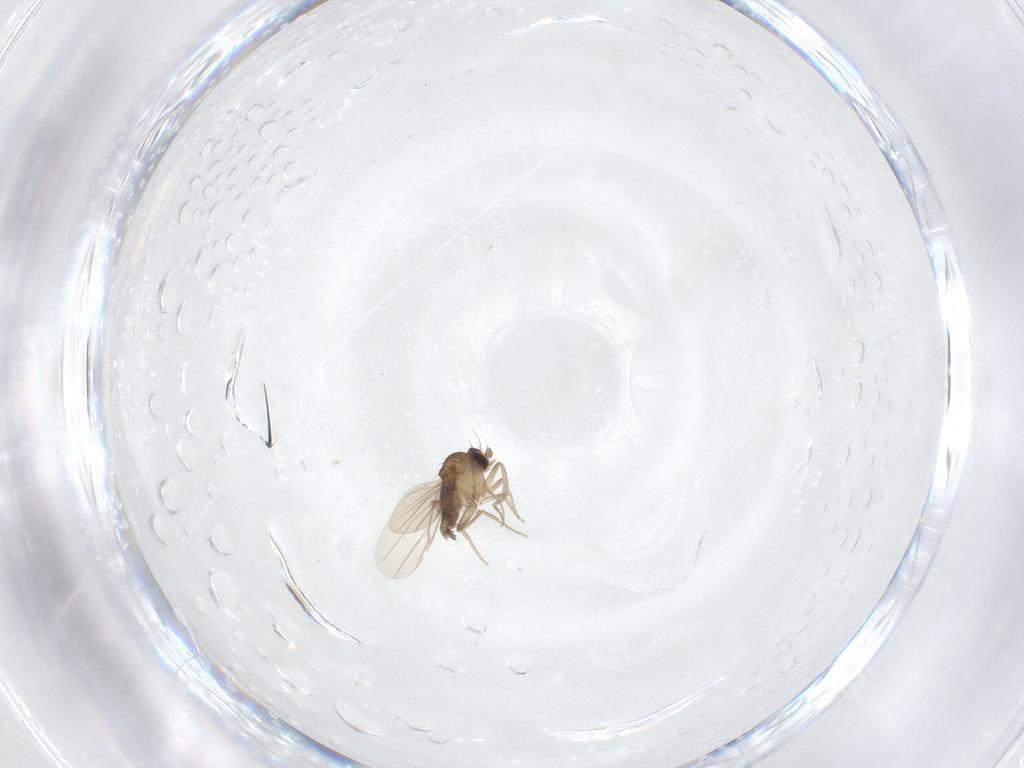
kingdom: Animalia
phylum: Arthropoda
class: Insecta
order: Diptera
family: Phoridae
